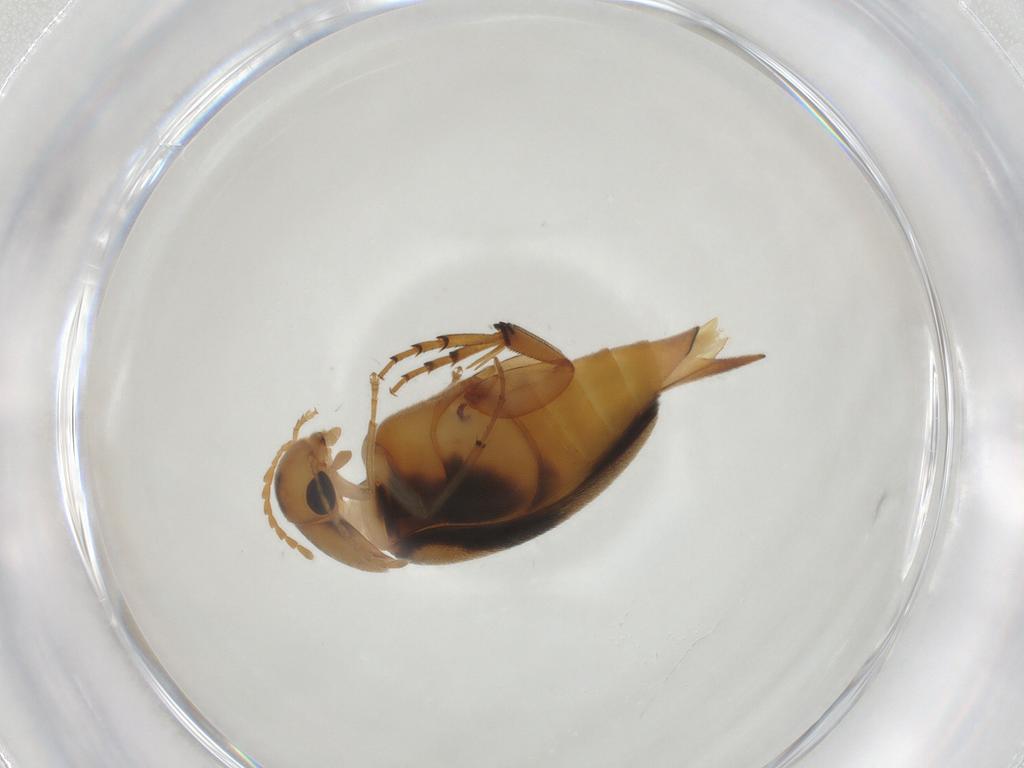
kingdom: Animalia
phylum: Arthropoda
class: Insecta
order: Coleoptera
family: Mordellidae
